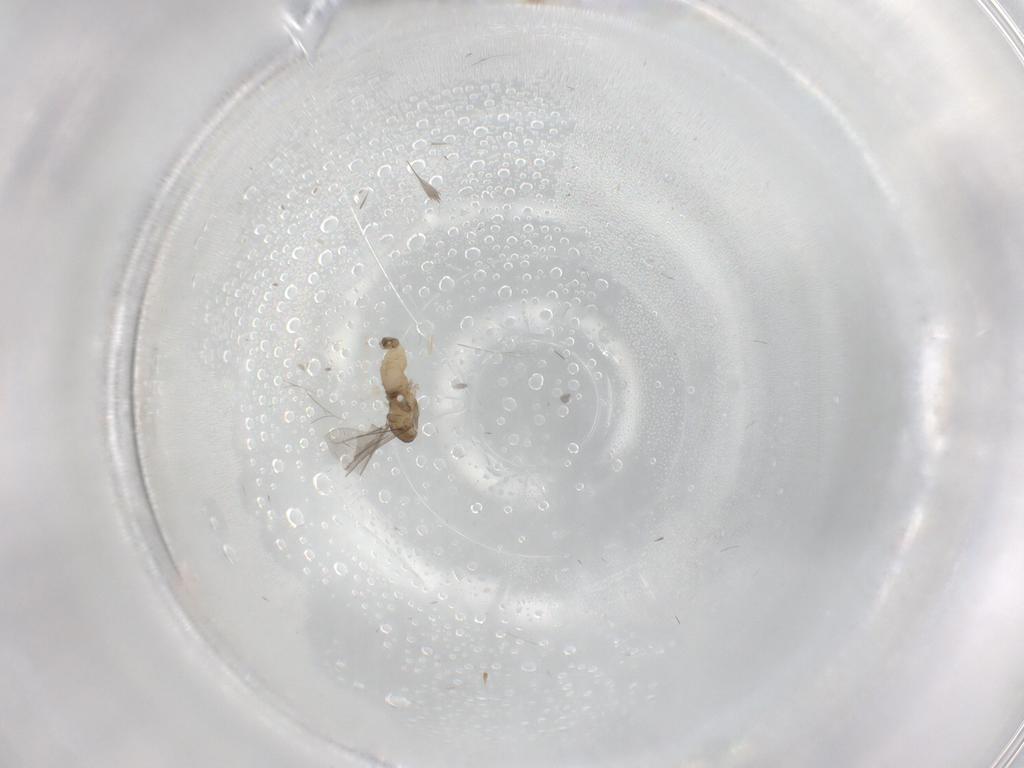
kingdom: Animalia
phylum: Arthropoda
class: Insecta
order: Diptera
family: Cecidomyiidae
